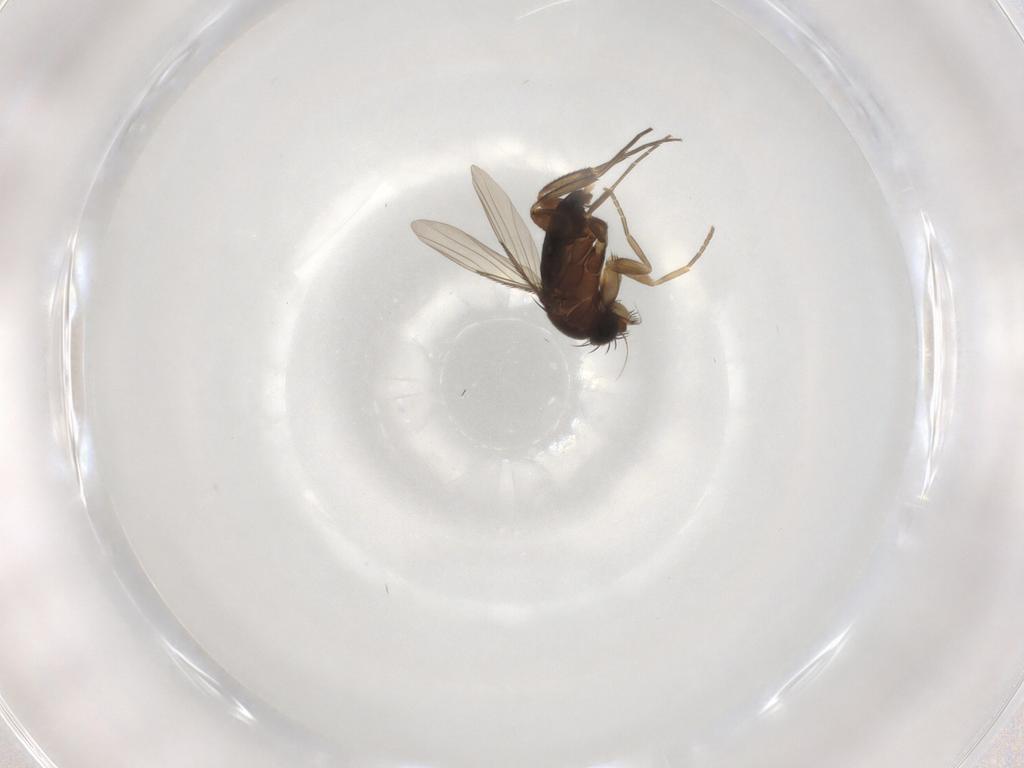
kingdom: Animalia
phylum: Arthropoda
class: Insecta
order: Diptera
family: Phoridae
